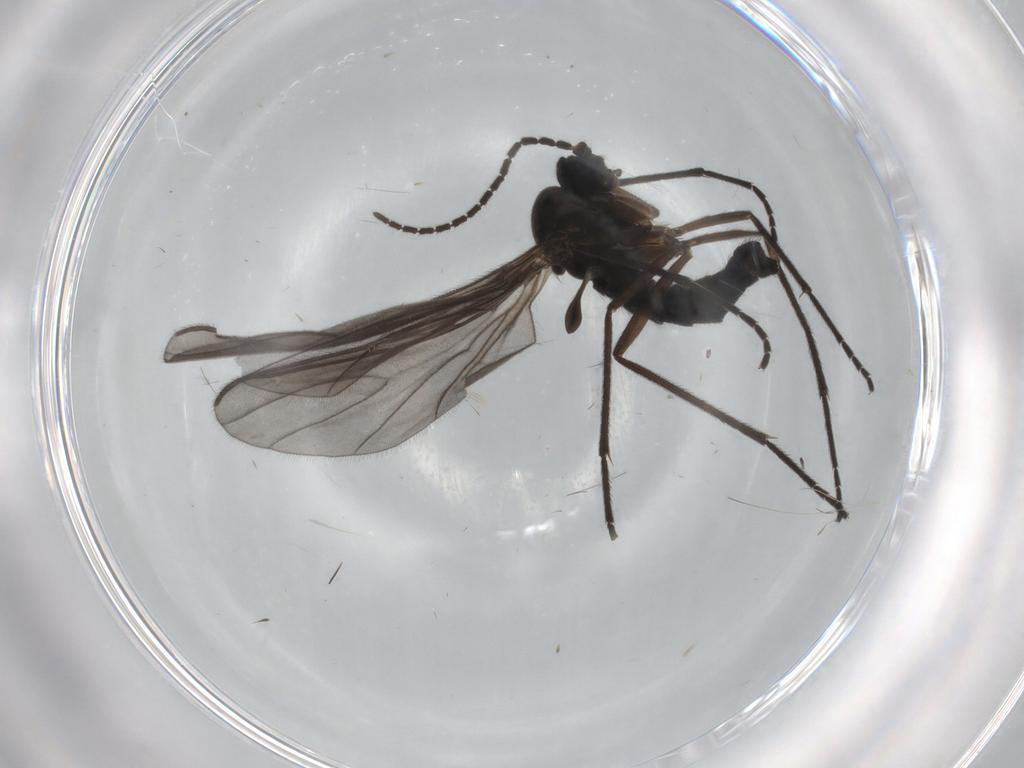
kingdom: Animalia
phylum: Arthropoda
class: Insecta
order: Diptera
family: Sciaridae
